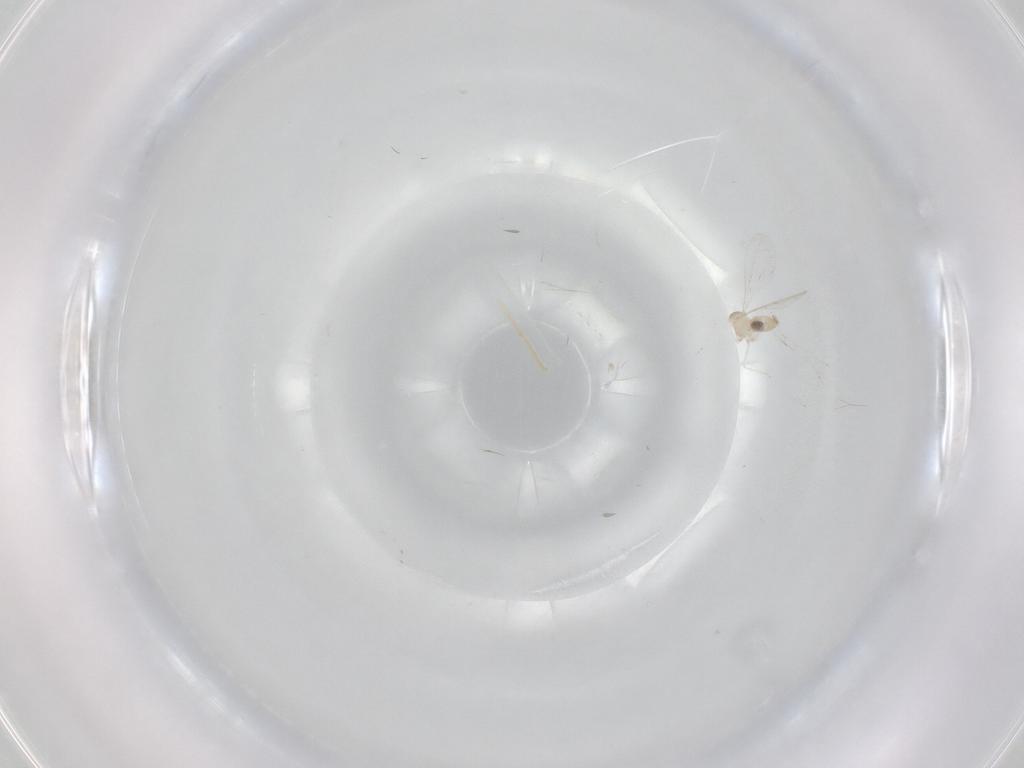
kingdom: Animalia
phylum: Arthropoda
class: Insecta
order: Diptera
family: Cecidomyiidae
